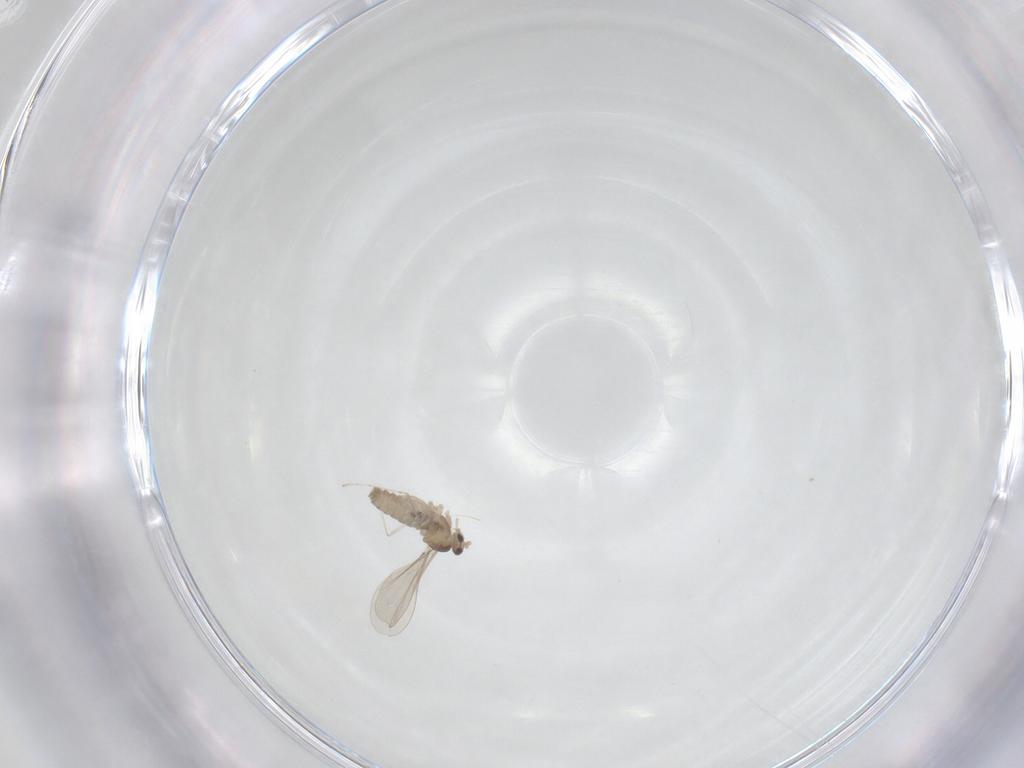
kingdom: Animalia
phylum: Arthropoda
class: Insecta
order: Diptera
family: Cecidomyiidae
